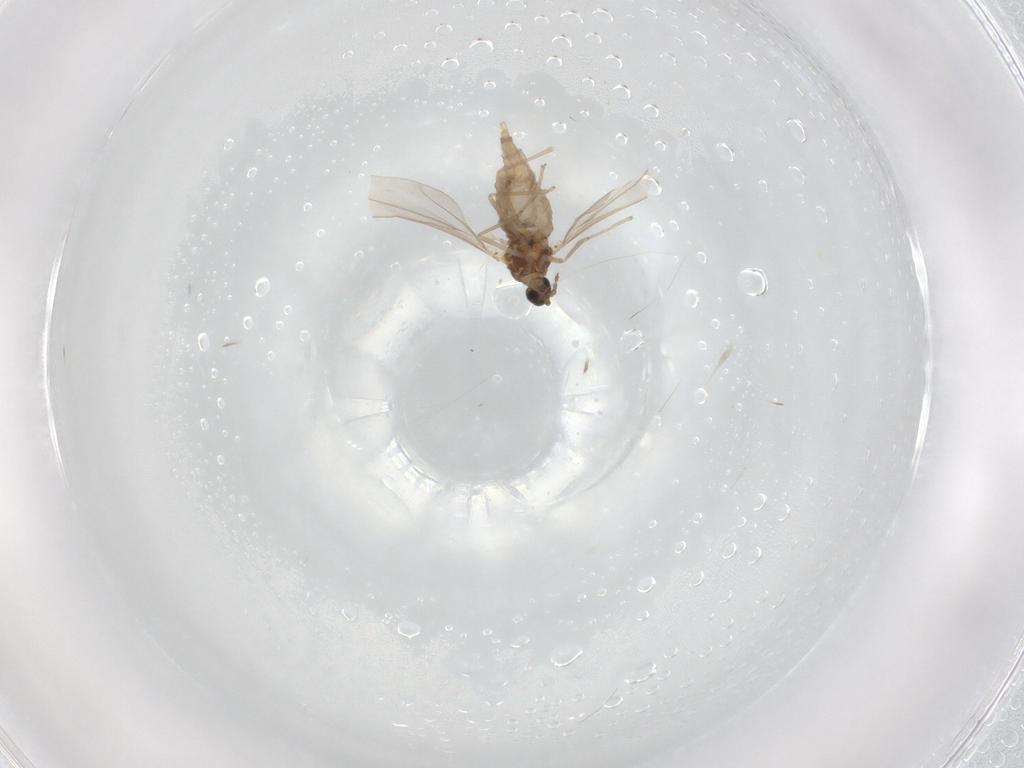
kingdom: Animalia
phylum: Arthropoda
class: Insecta
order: Diptera
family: Cecidomyiidae
